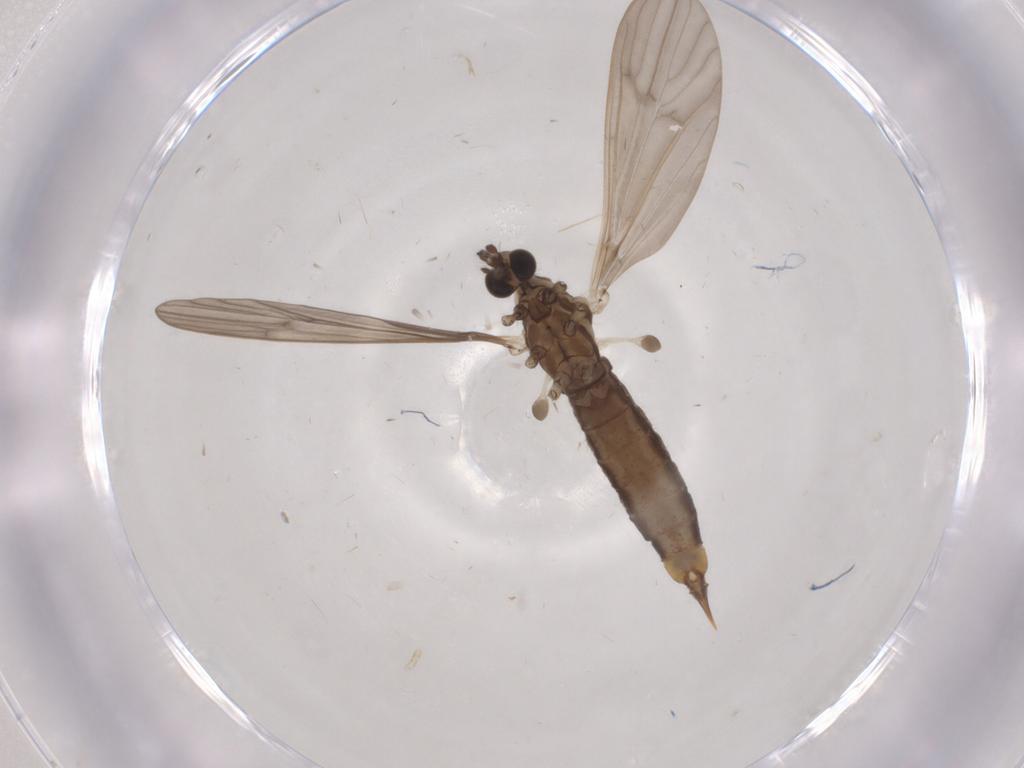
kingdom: Animalia
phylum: Arthropoda
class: Insecta
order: Diptera
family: Limoniidae
